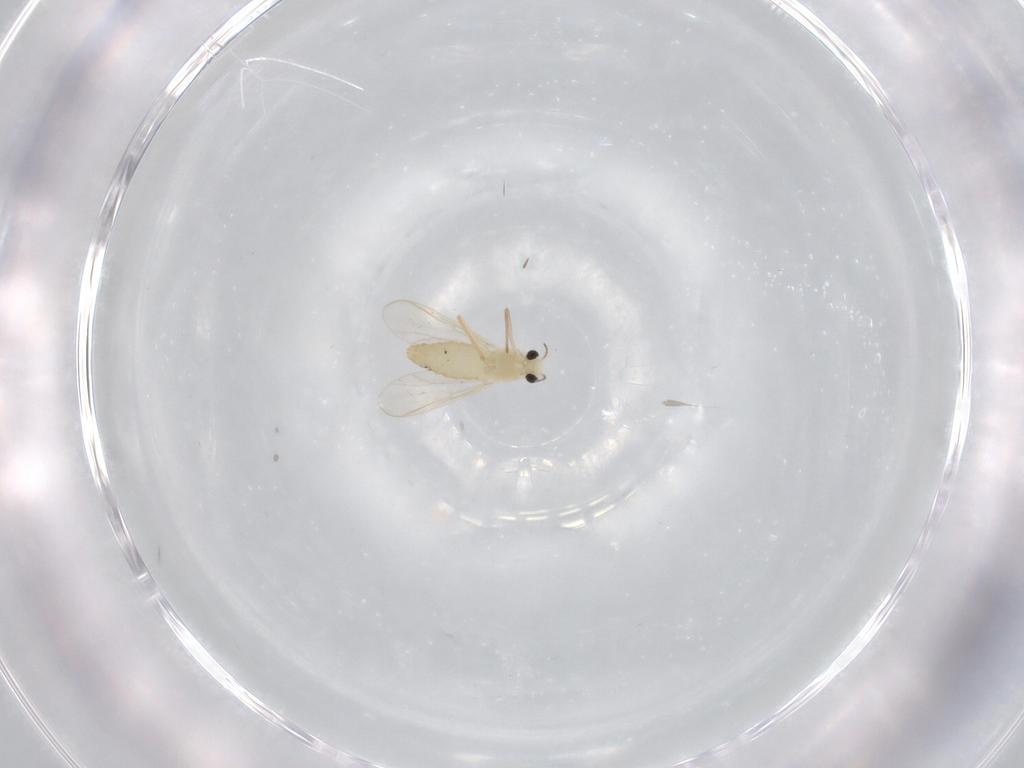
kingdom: Animalia
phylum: Arthropoda
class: Insecta
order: Diptera
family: Chironomidae
